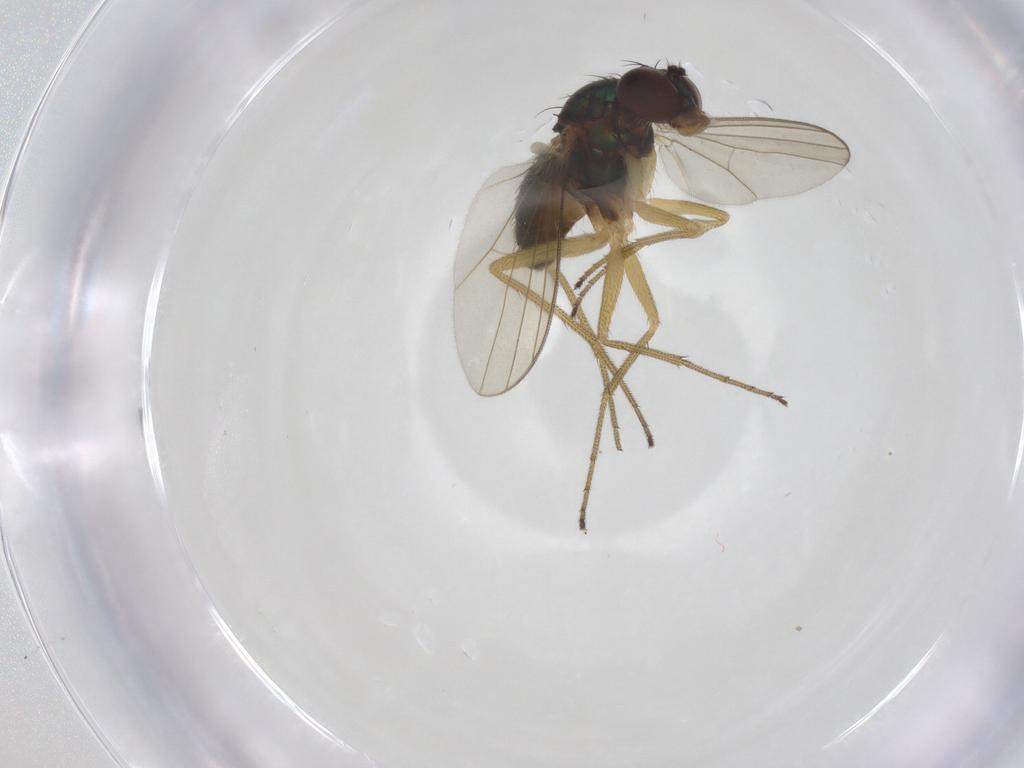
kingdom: Animalia
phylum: Arthropoda
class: Insecta
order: Diptera
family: Dolichopodidae
